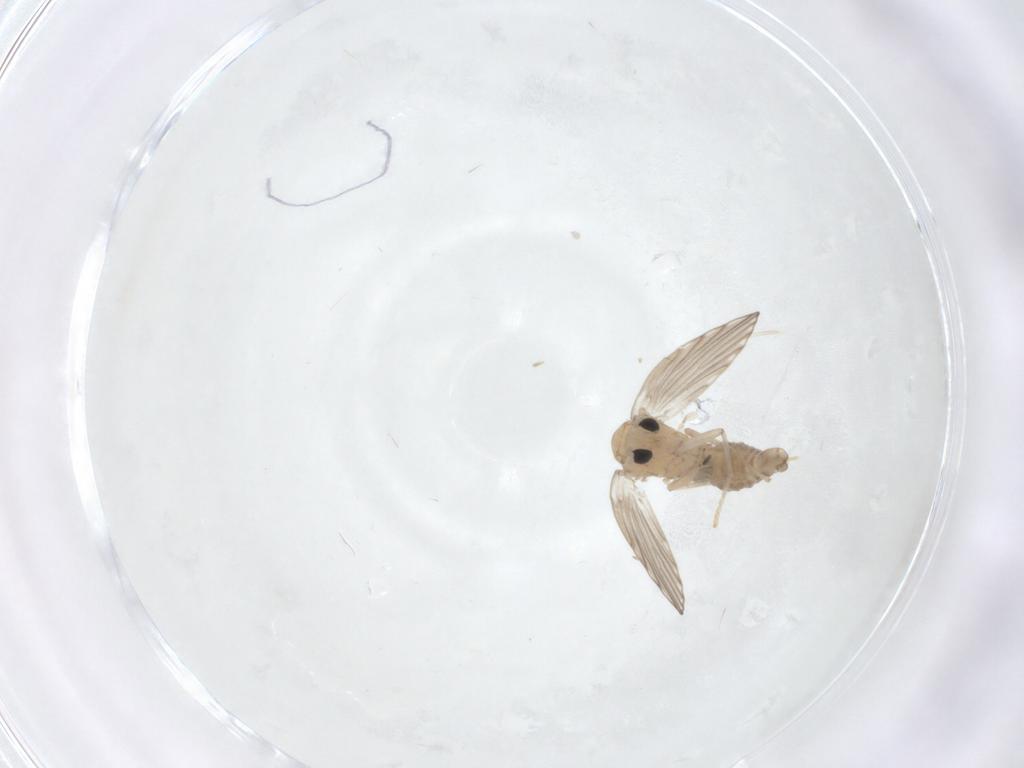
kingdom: Animalia
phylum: Arthropoda
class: Insecta
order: Diptera
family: Psychodidae
